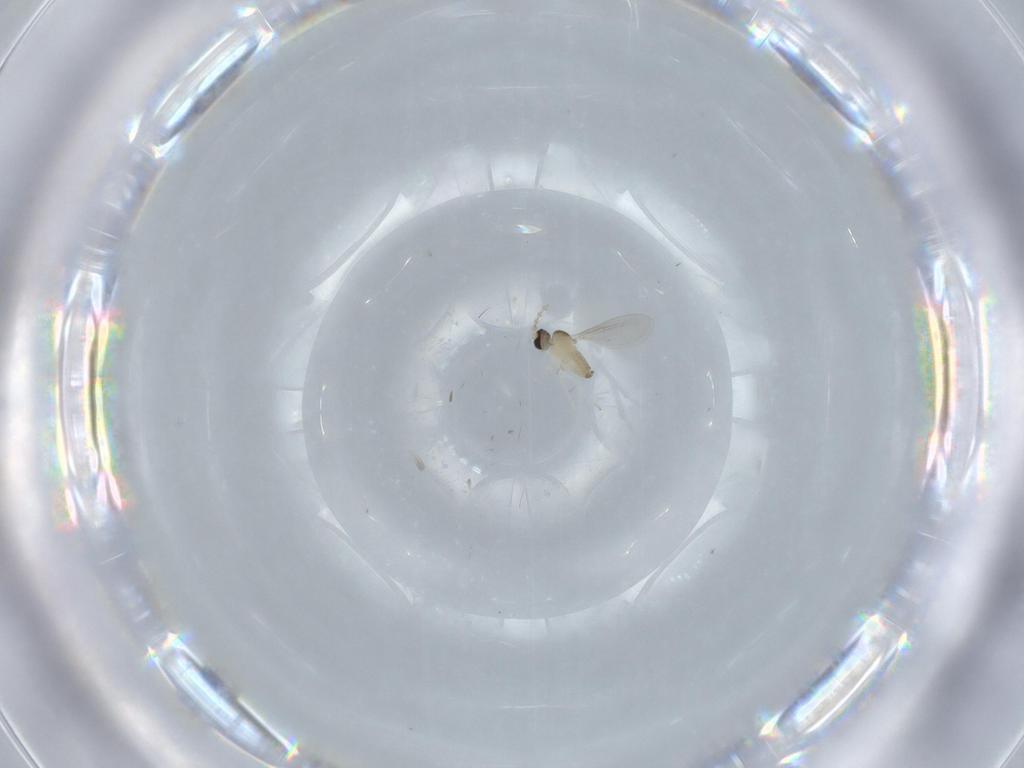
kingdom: Animalia
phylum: Arthropoda
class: Insecta
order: Diptera
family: Cecidomyiidae
